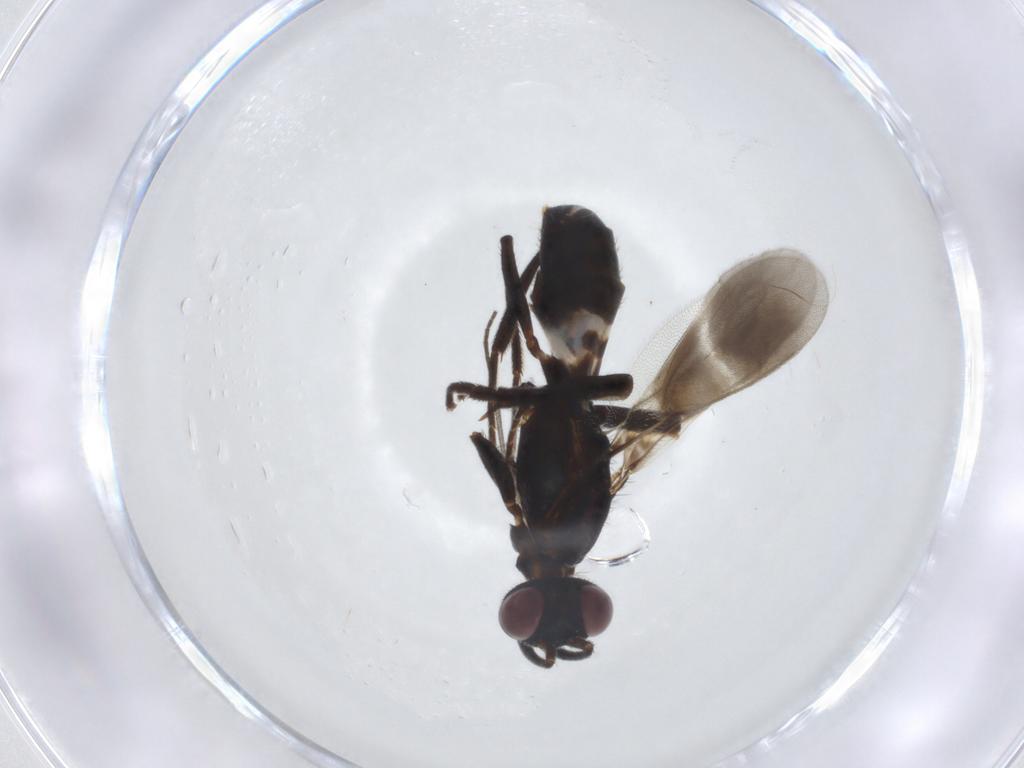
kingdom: Animalia
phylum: Arthropoda
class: Insecta
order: Hymenoptera
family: Eupelmidae
